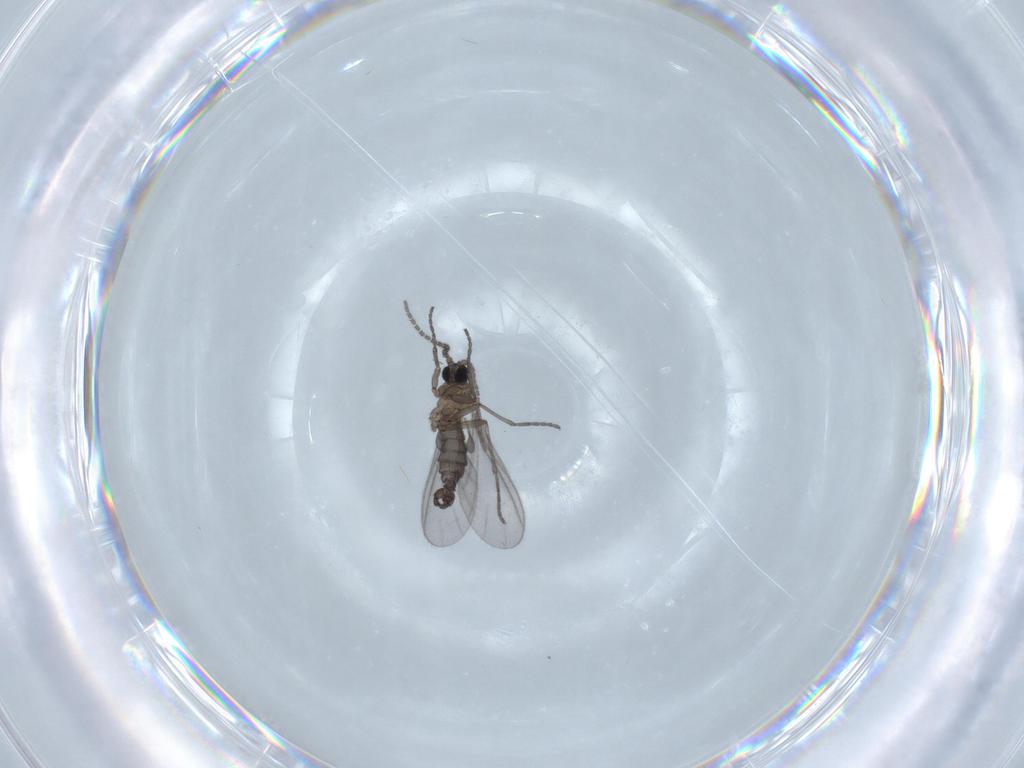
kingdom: Animalia
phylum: Arthropoda
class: Insecta
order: Diptera
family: Sciaridae
